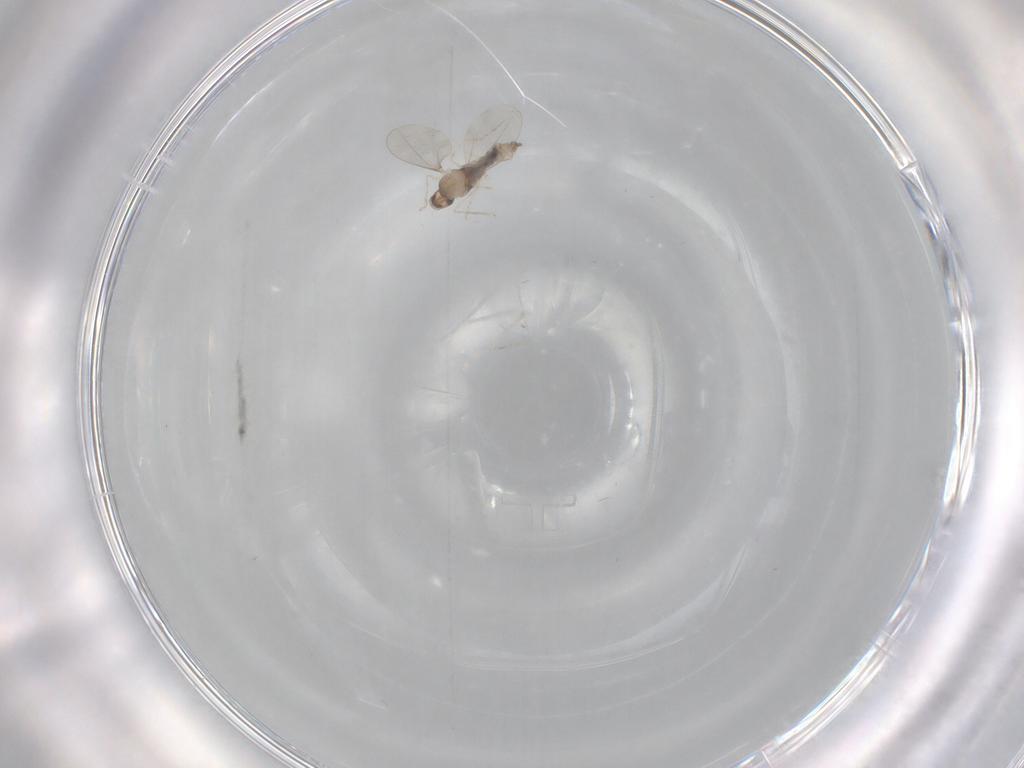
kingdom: Animalia
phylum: Arthropoda
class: Insecta
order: Diptera
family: Cecidomyiidae
